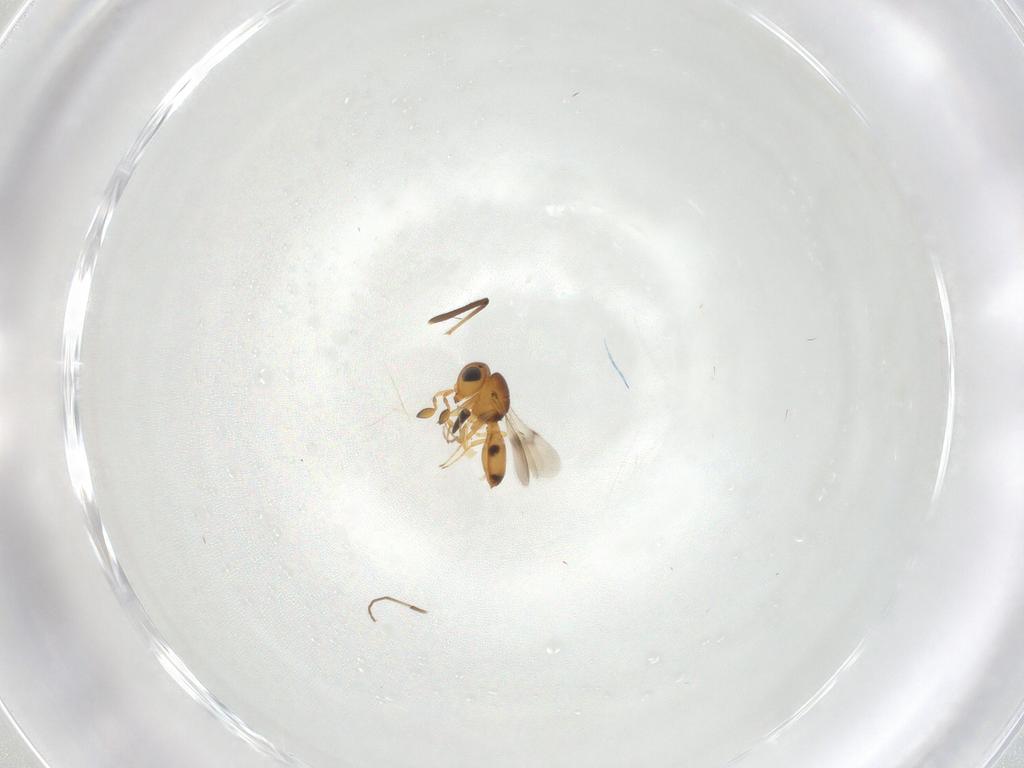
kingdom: Animalia
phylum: Arthropoda
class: Insecta
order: Hymenoptera
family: Scelionidae
